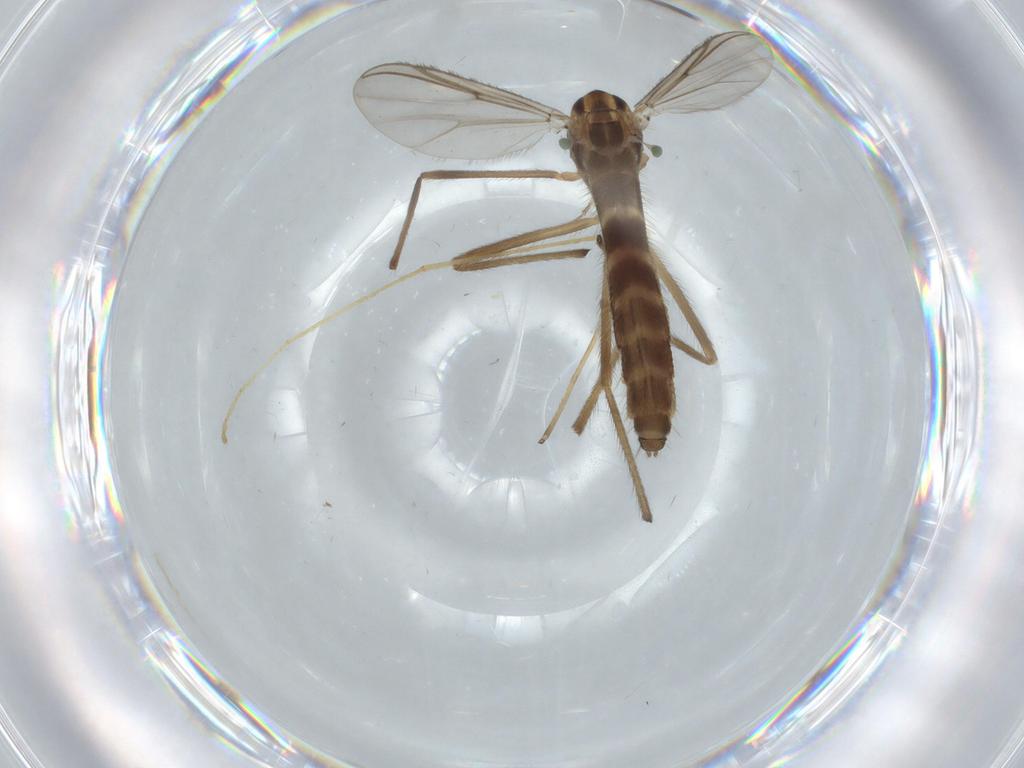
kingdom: Animalia
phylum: Arthropoda
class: Insecta
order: Diptera
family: Chironomidae
